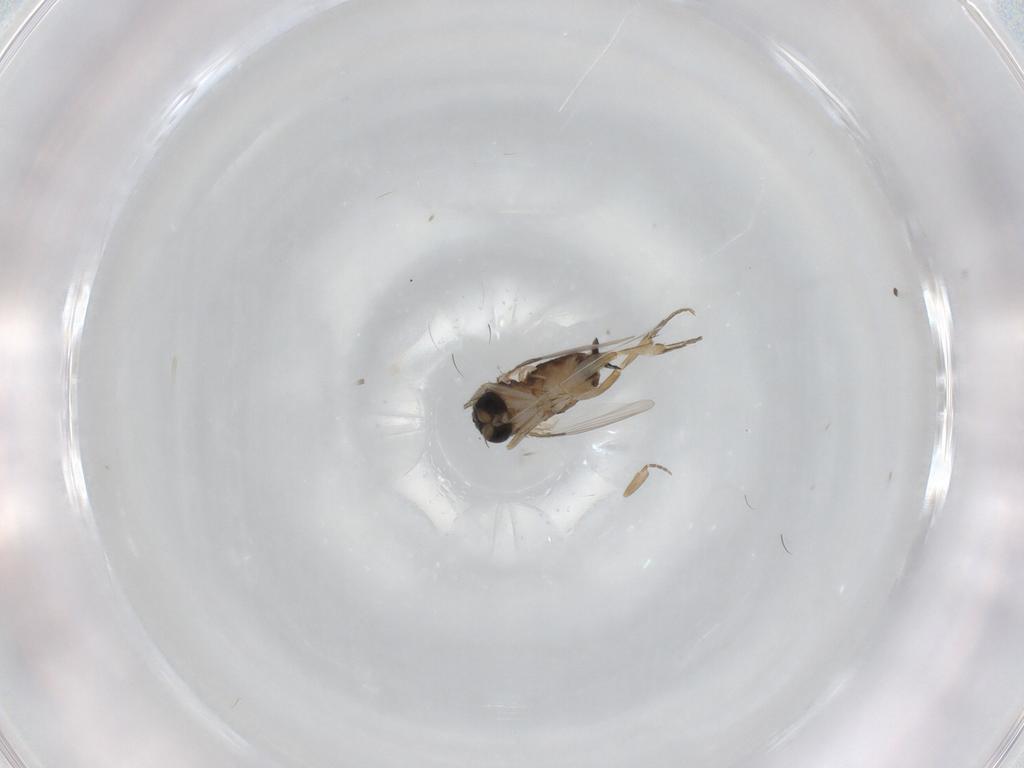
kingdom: Animalia
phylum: Arthropoda
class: Insecta
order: Diptera
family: Phoridae
